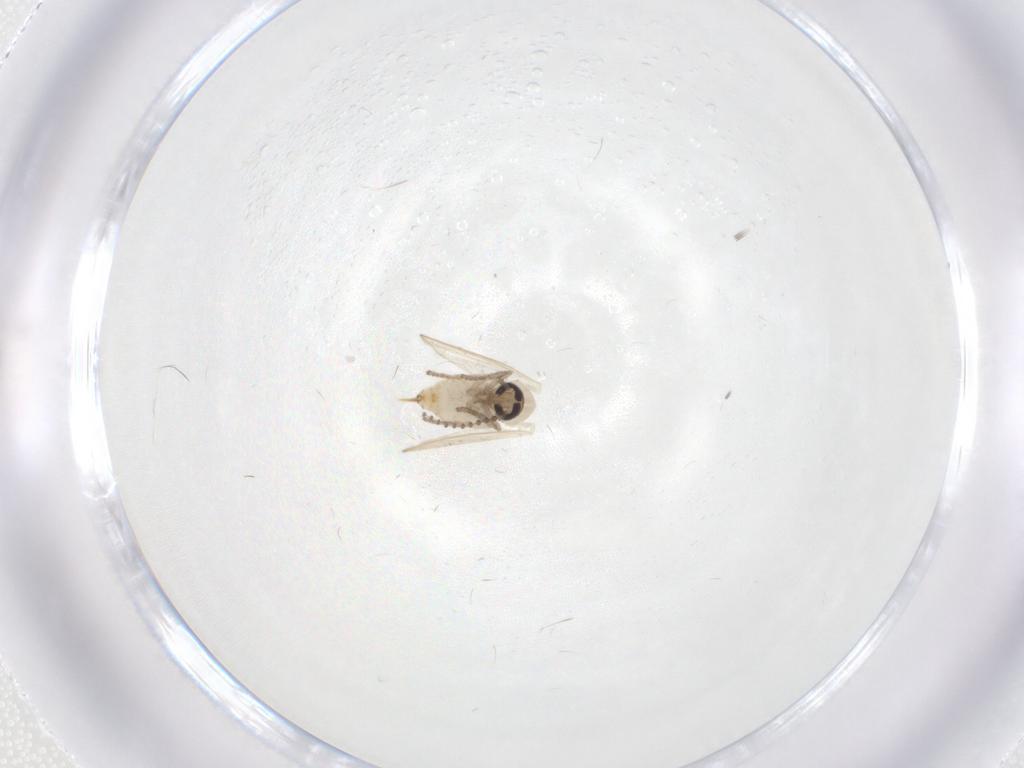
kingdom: Animalia
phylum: Arthropoda
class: Insecta
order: Diptera
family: Psychodidae
